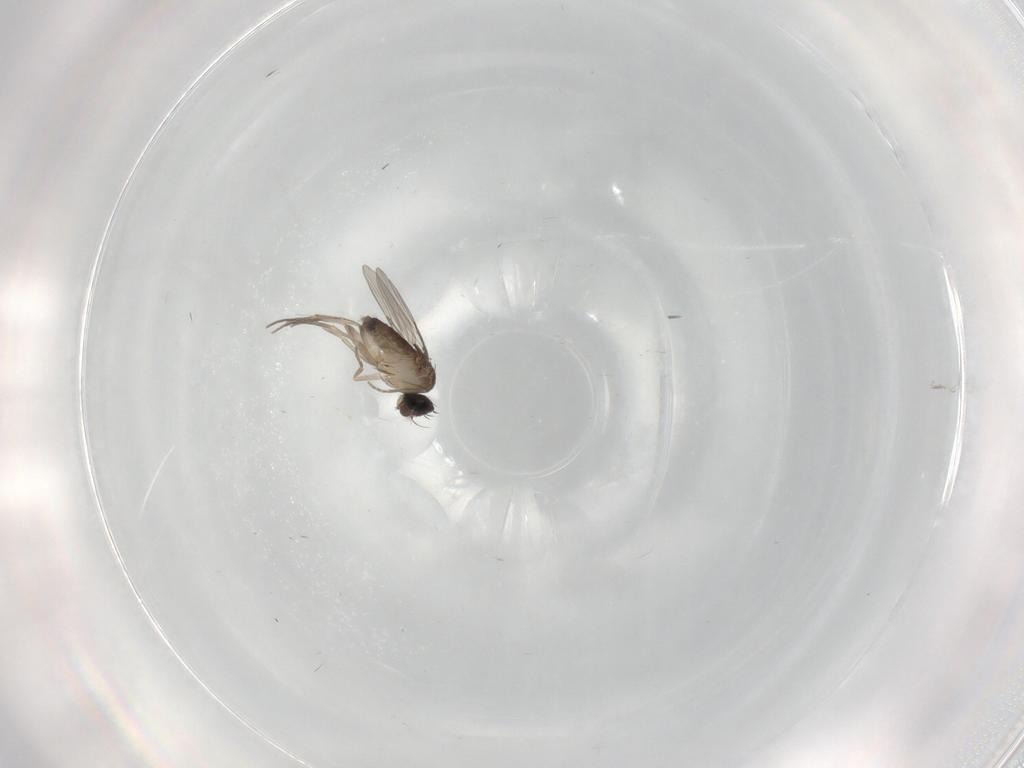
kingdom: Animalia
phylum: Arthropoda
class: Insecta
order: Diptera
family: Phoridae
